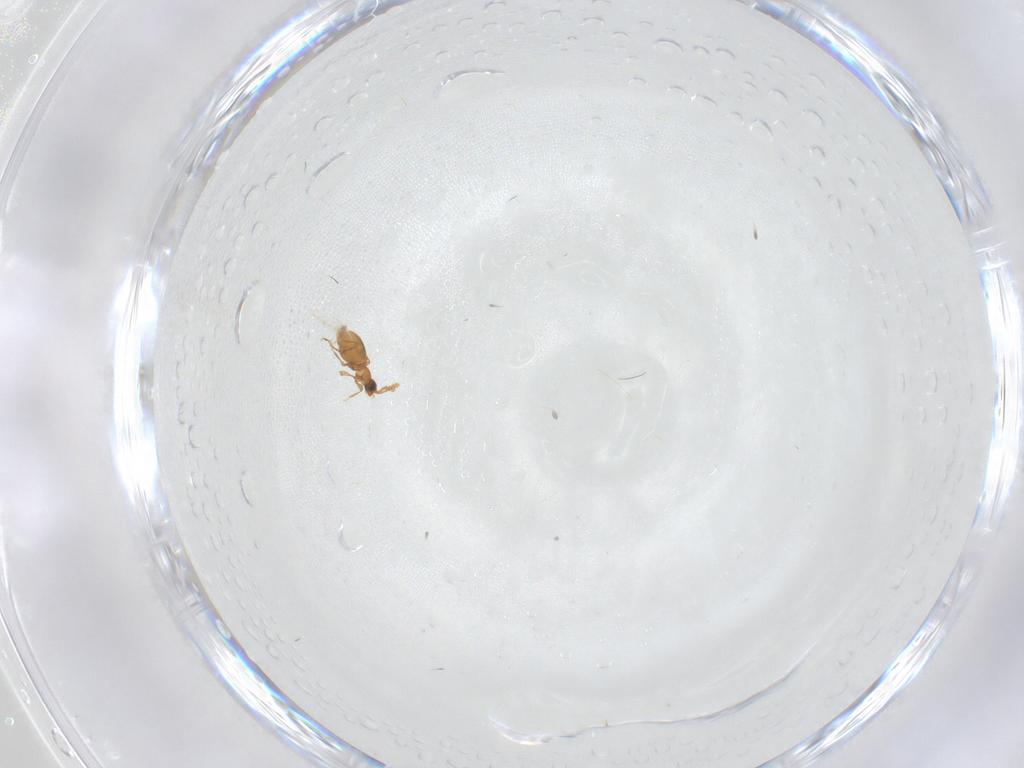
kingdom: Animalia
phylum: Arthropoda
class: Insecta
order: Coleoptera
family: Staphylinidae
